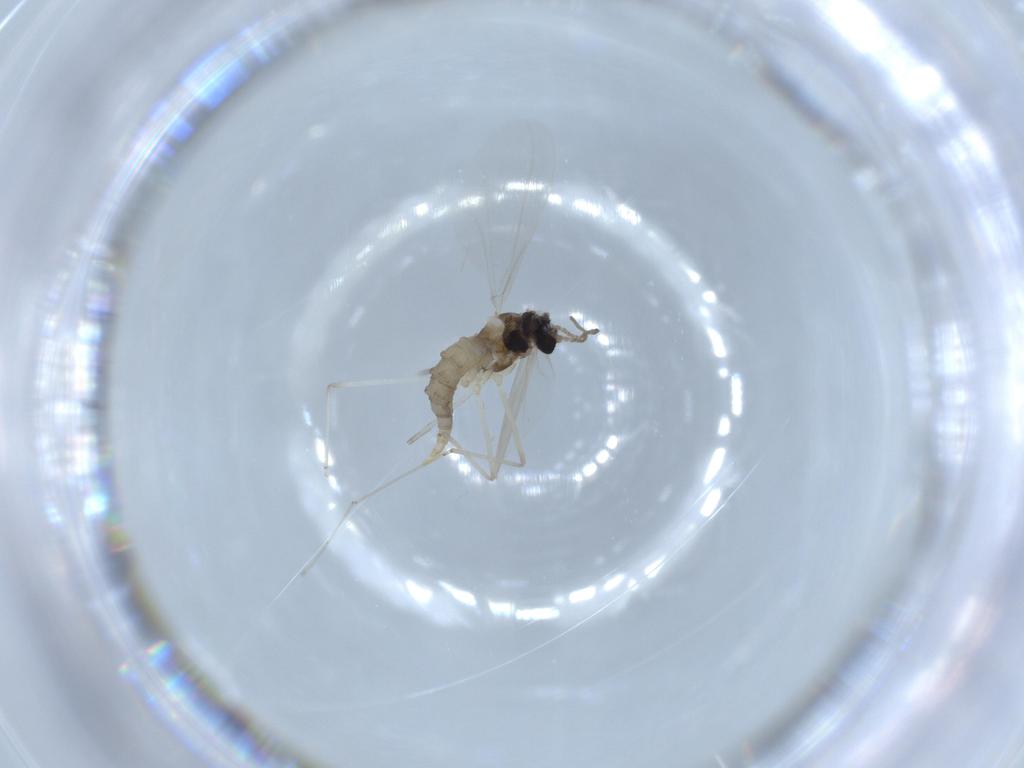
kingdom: Animalia
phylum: Arthropoda
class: Insecta
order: Diptera
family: Cecidomyiidae
